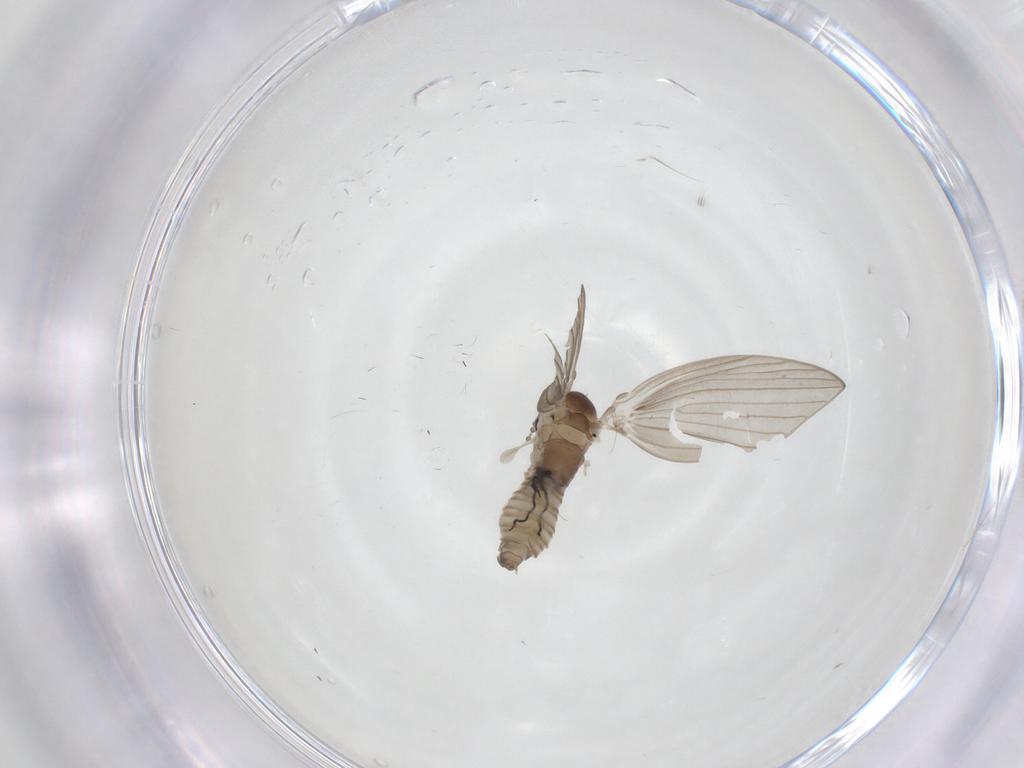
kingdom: Animalia
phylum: Arthropoda
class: Insecta
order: Diptera
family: Psychodidae
